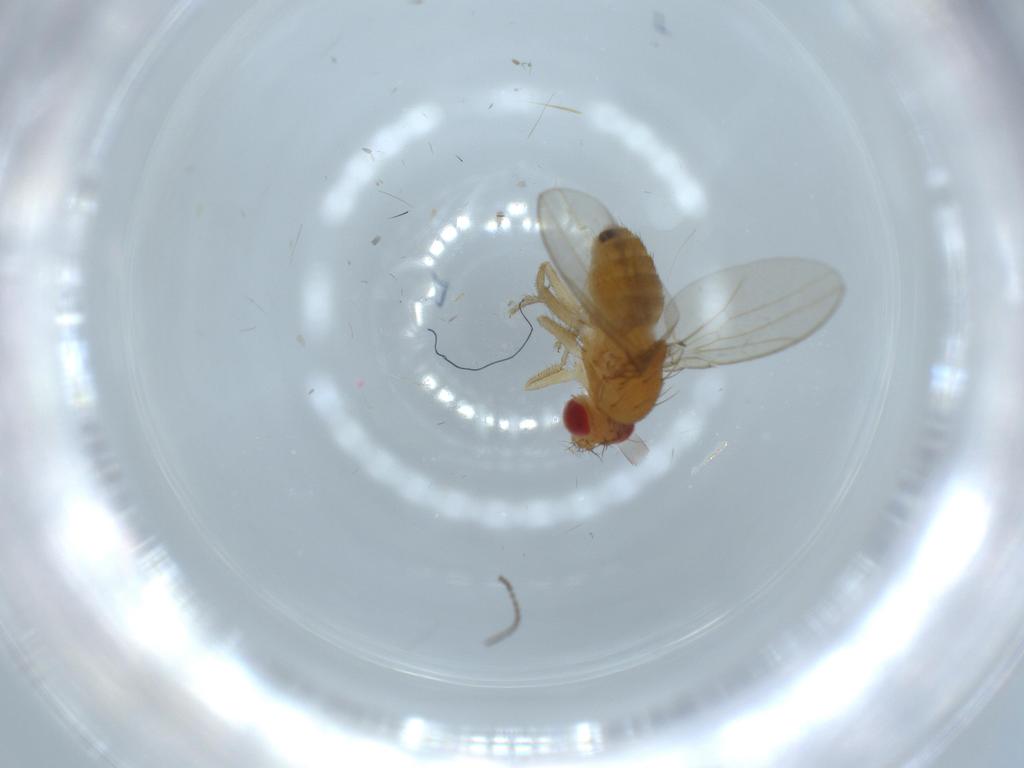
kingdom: Animalia
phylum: Arthropoda
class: Insecta
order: Diptera
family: Drosophilidae
